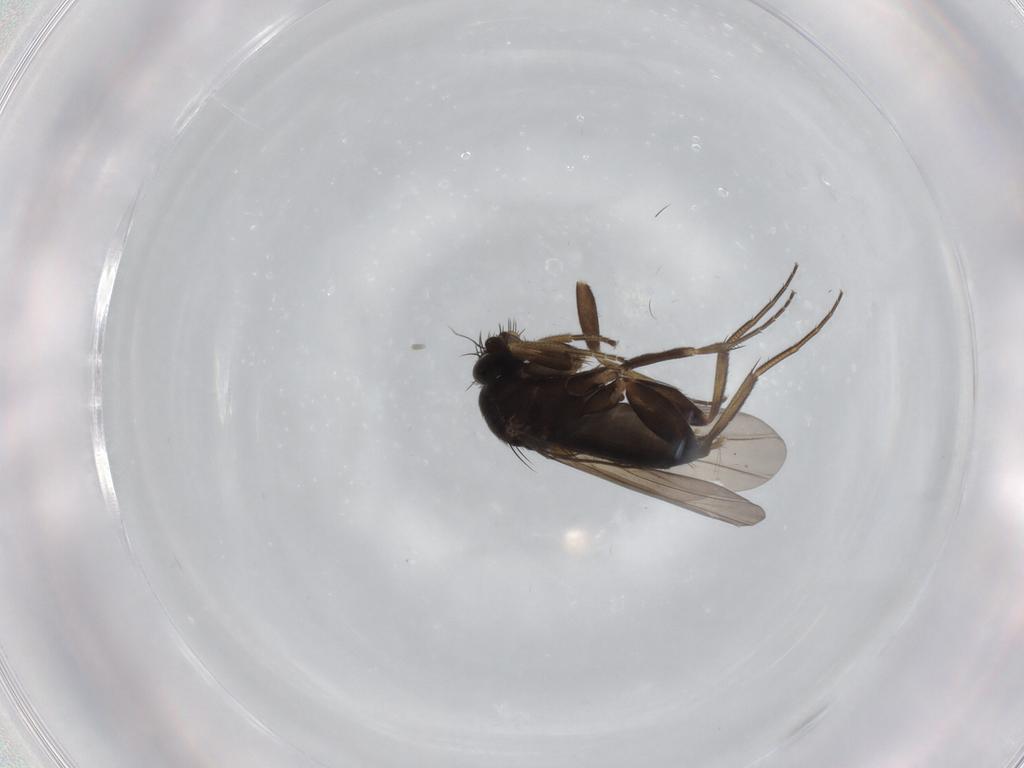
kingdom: Animalia
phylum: Arthropoda
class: Insecta
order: Diptera
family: Phoridae
